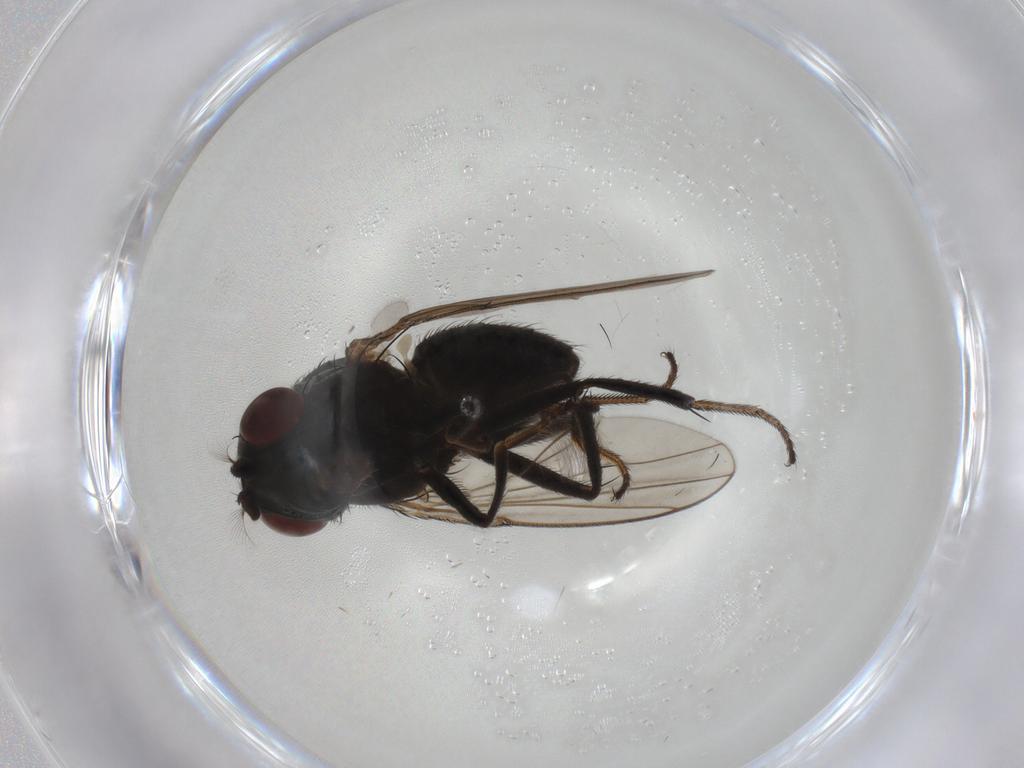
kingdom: Animalia
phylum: Arthropoda
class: Insecta
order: Diptera
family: Ephydridae
